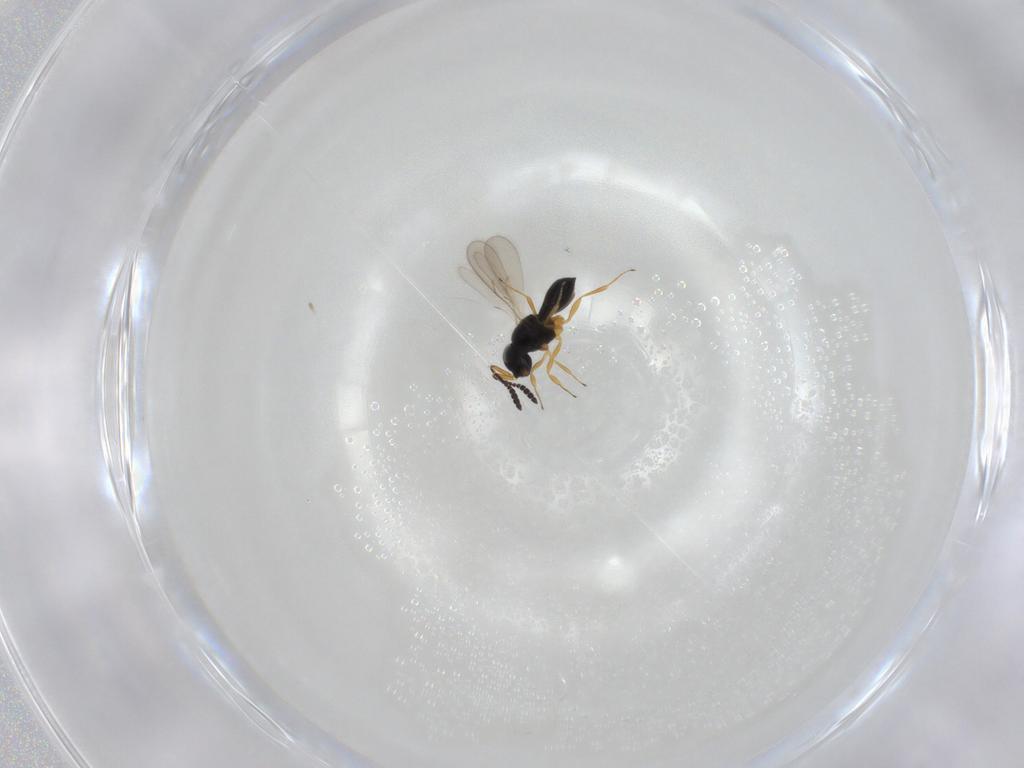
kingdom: Animalia
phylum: Arthropoda
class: Insecta
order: Hymenoptera
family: Scelionidae
